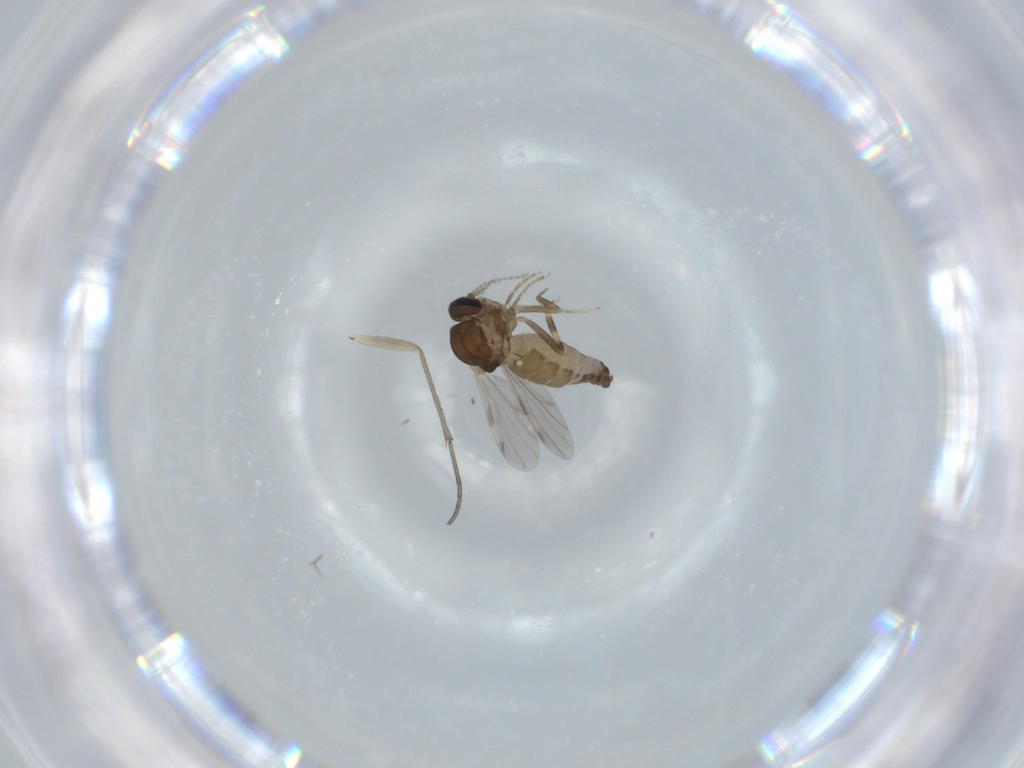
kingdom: Animalia
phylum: Arthropoda
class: Insecta
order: Diptera
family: Ceratopogonidae
